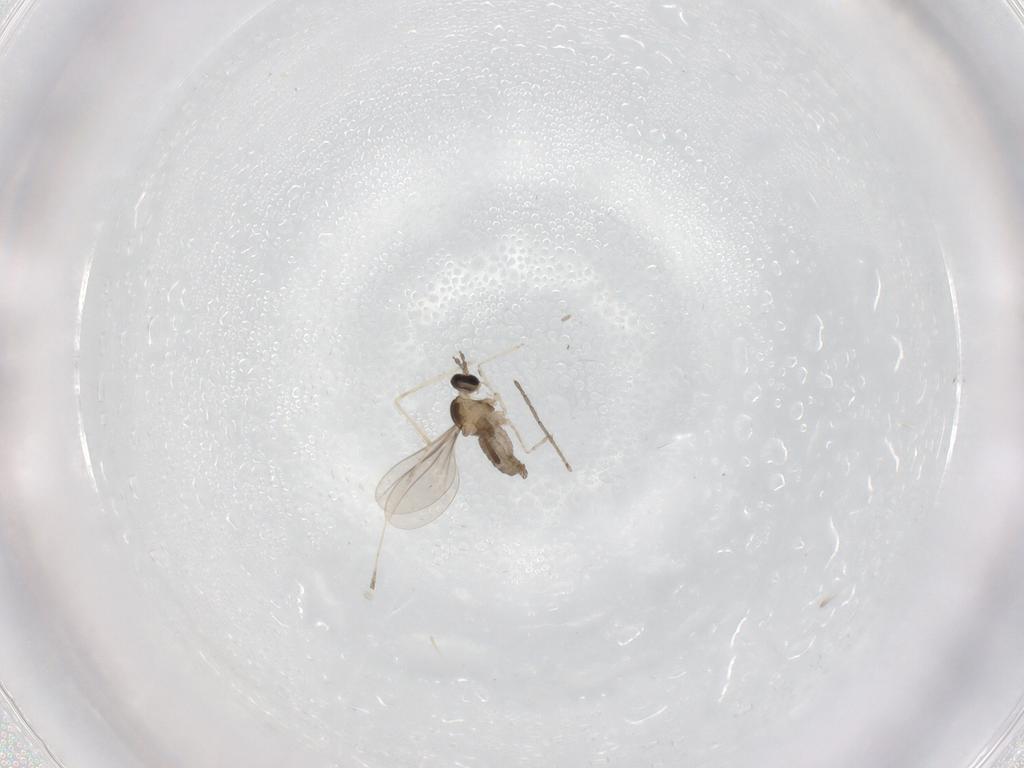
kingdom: Animalia
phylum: Arthropoda
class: Insecta
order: Diptera
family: Cecidomyiidae
